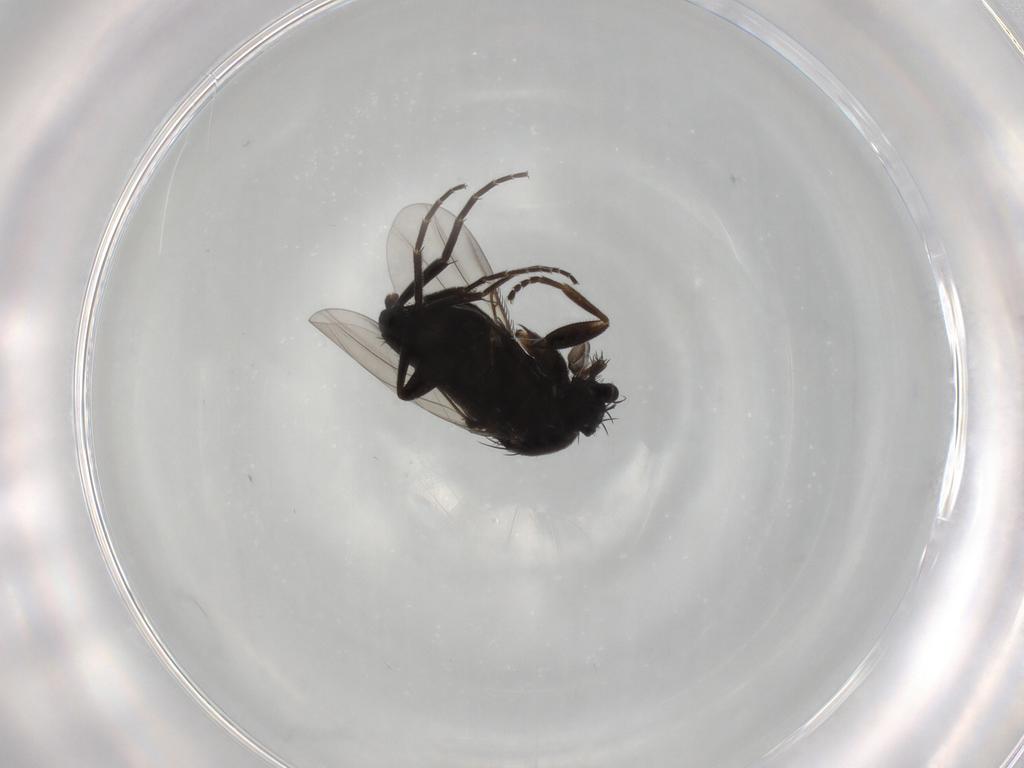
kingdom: Animalia
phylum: Arthropoda
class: Insecta
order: Diptera
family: Phoridae
